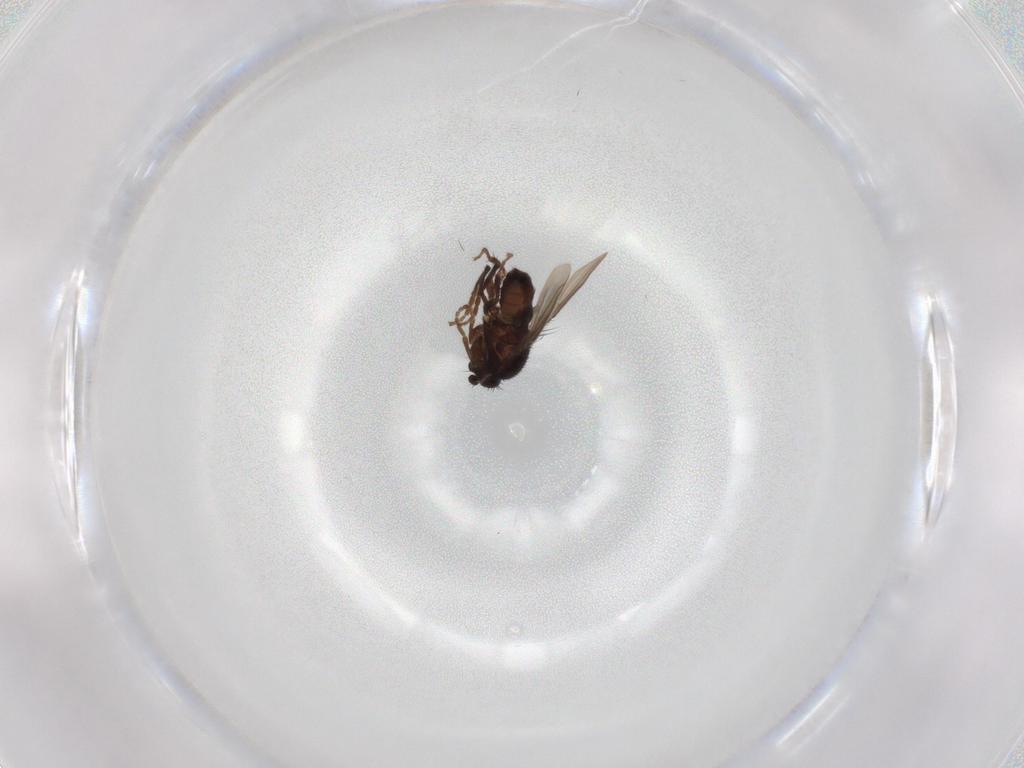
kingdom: Animalia
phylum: Arthropoda
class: Insecta
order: Diptera
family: Sphaeroceridae
